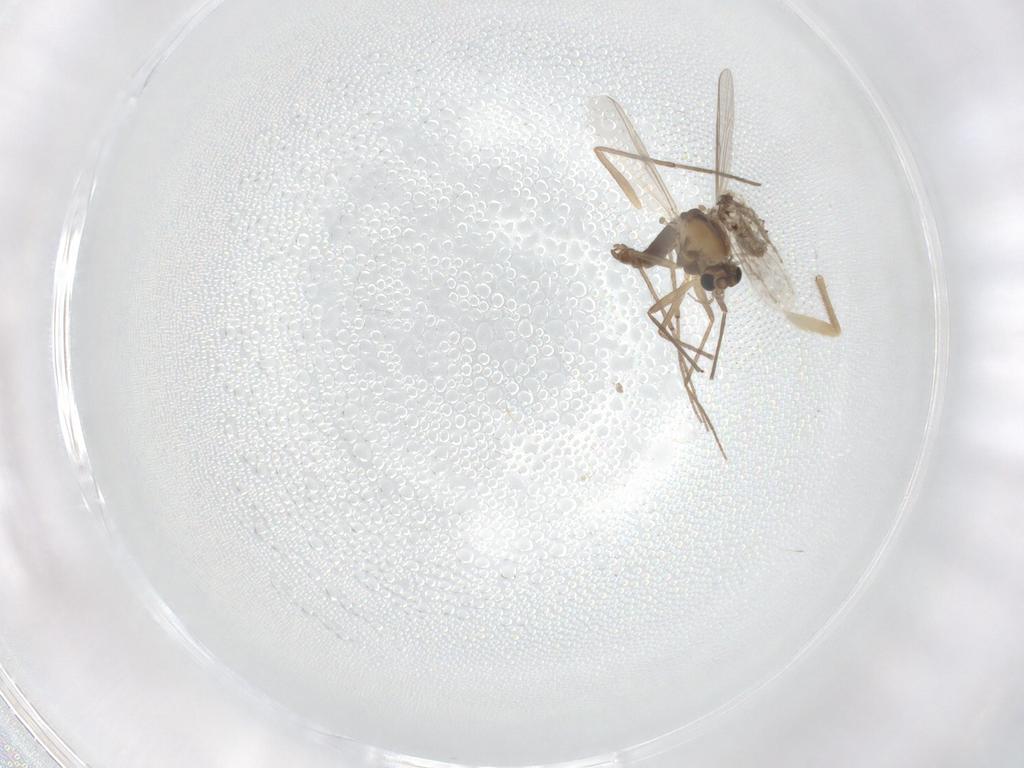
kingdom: Animalia
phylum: Arthropoda
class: Insecta
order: Diptera
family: Chironomidae
